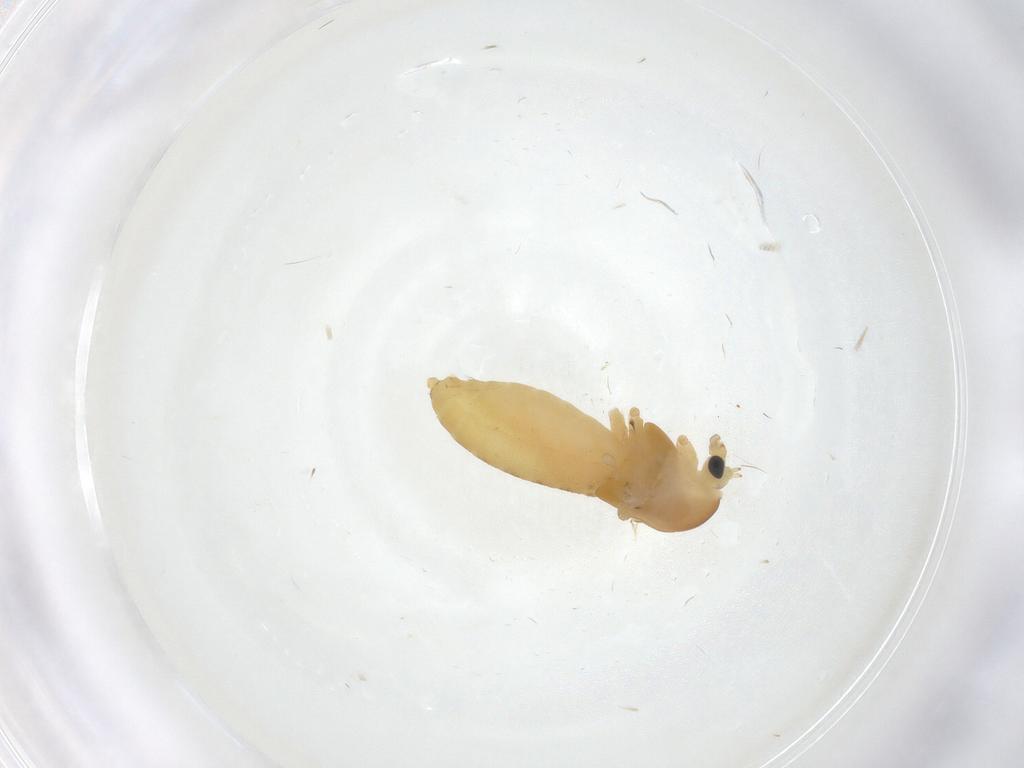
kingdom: Animalia
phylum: Arthropoda
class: Insecta
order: Diptera
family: Chironomidae
